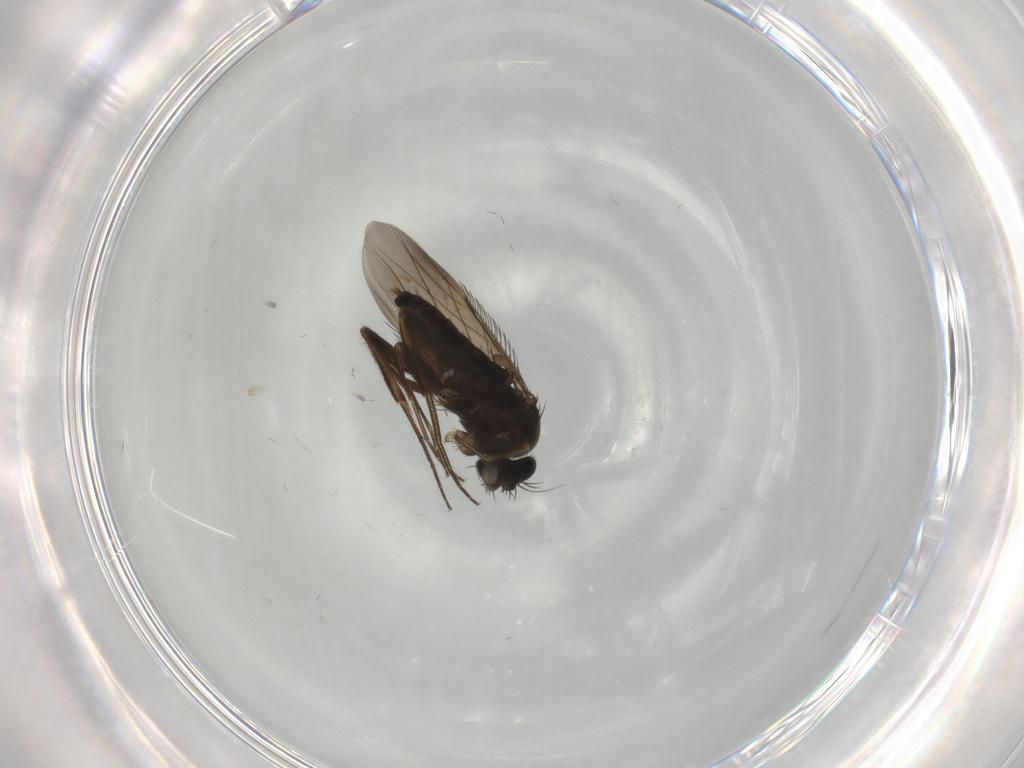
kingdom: Animalia
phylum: Arthropoda
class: Insecta
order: Diptera
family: Phoridae
